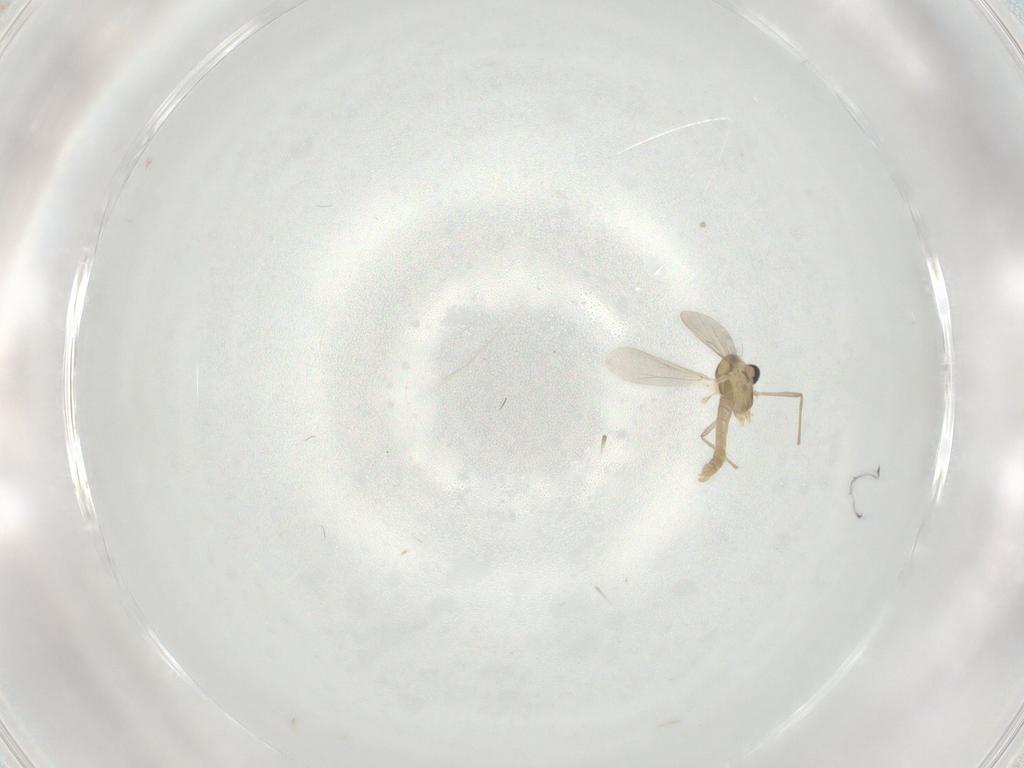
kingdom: Animalia
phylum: Arthropoda
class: Insecta
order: Diptera
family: Chironomidae
